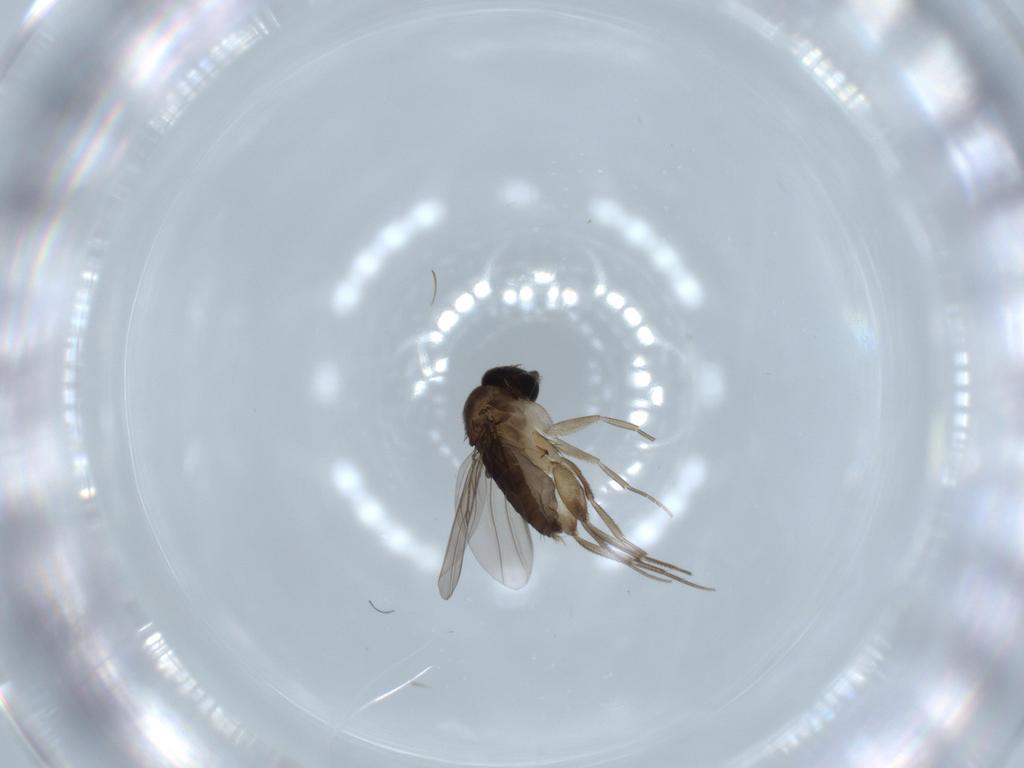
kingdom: Animalia
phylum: Arthropoda
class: Insecta
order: Diptera
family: Phoridae
